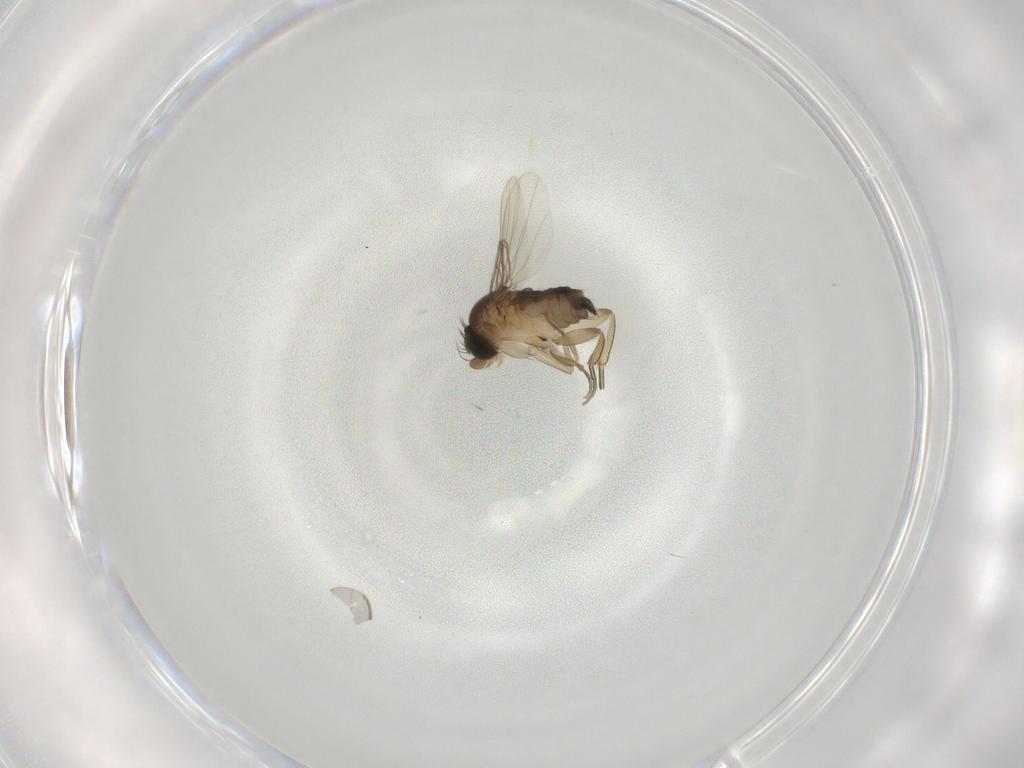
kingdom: Animalia
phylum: Arthropoda
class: Insecta
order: Diptera
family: Phoridae
